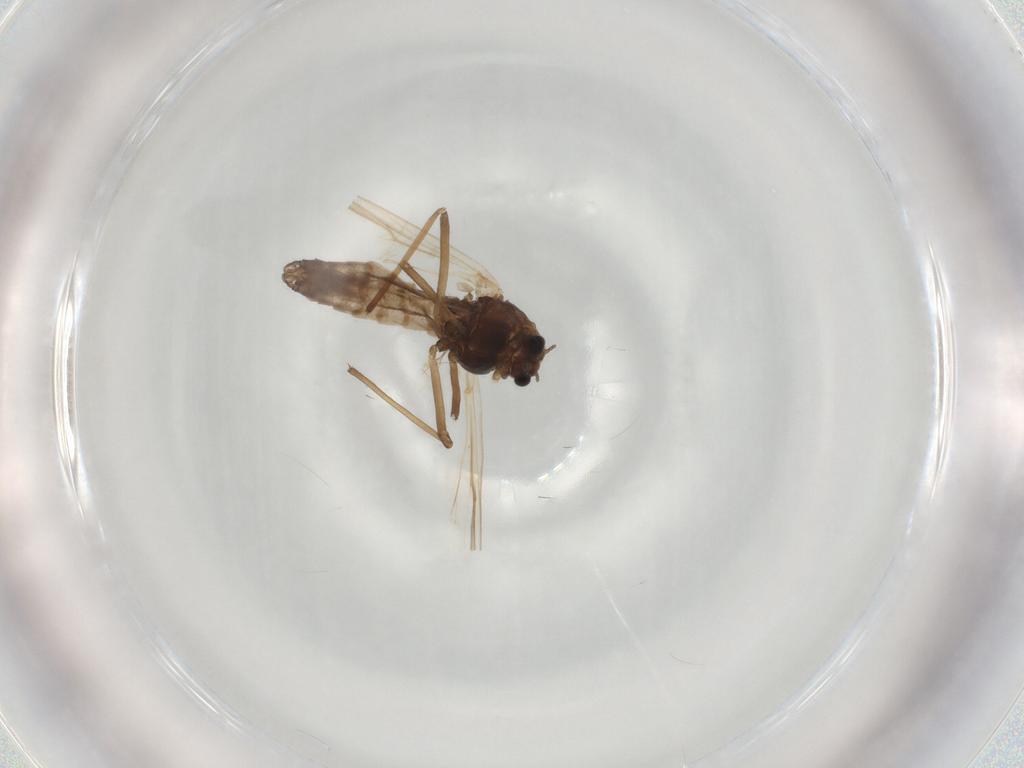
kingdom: Animalia
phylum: Arthropoda
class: Insecta
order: Diptera
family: Chironomidae
